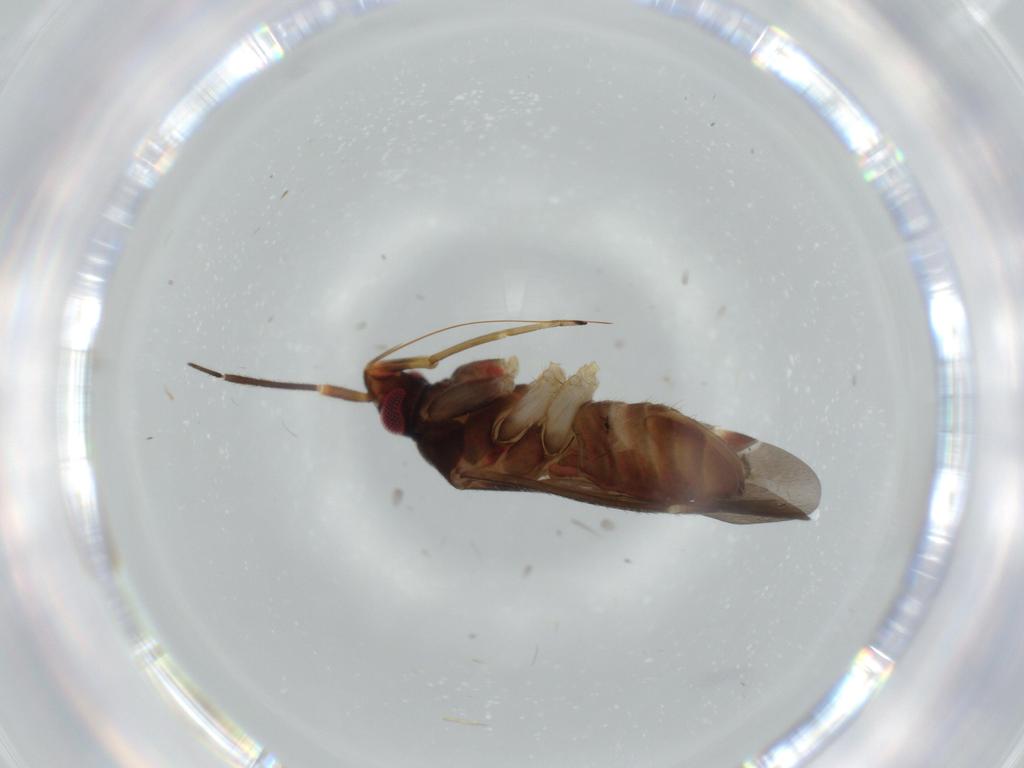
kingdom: Animalia
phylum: Arthropoda
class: Insecta
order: Hemiptera
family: Miridae
